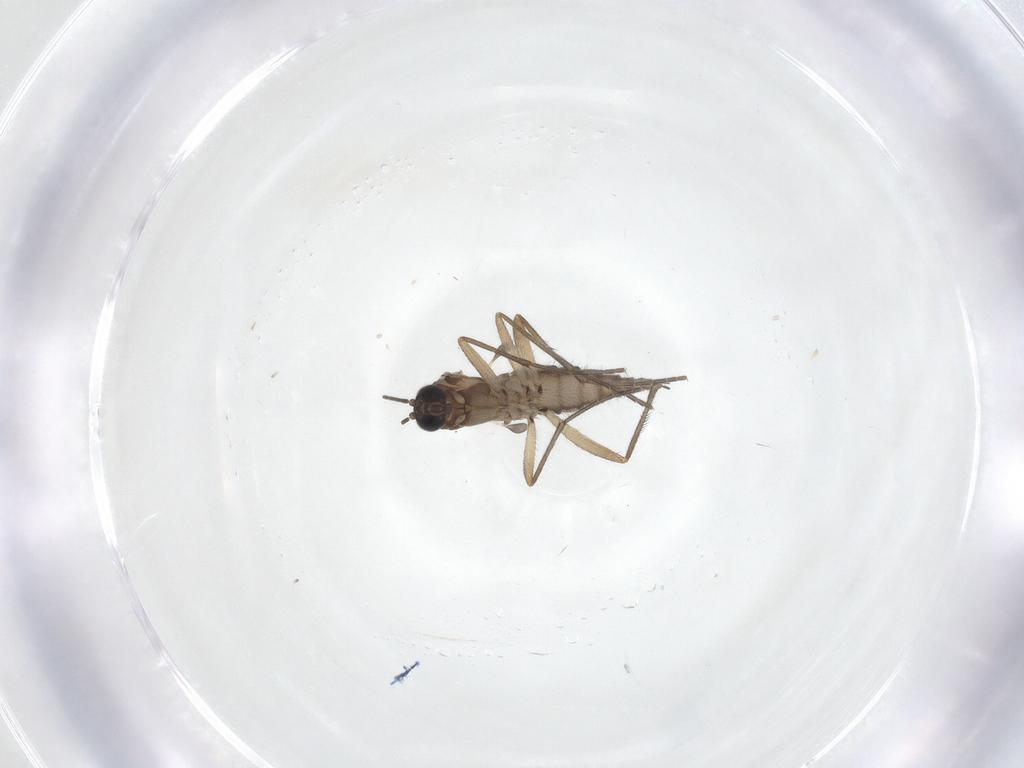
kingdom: Animalia
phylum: Arthropoda
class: Insecta
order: Diptera
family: Sciaridae
